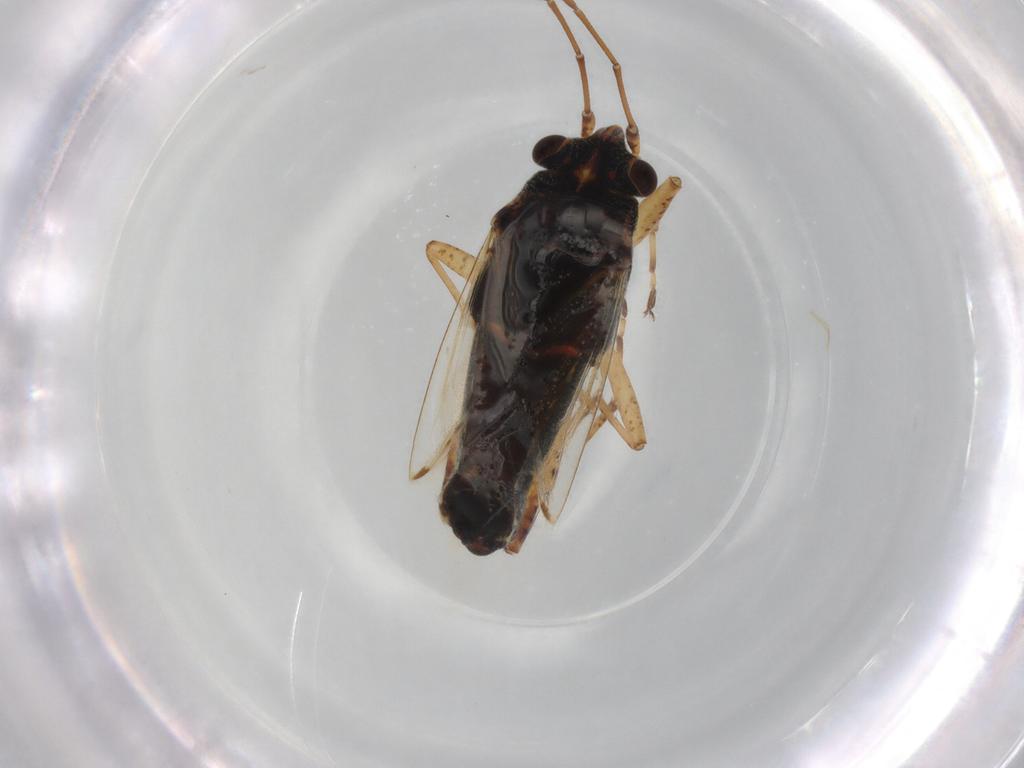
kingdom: Animalia
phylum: Arthropoda
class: Insecta
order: Hemiptera
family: Lygaeidae
